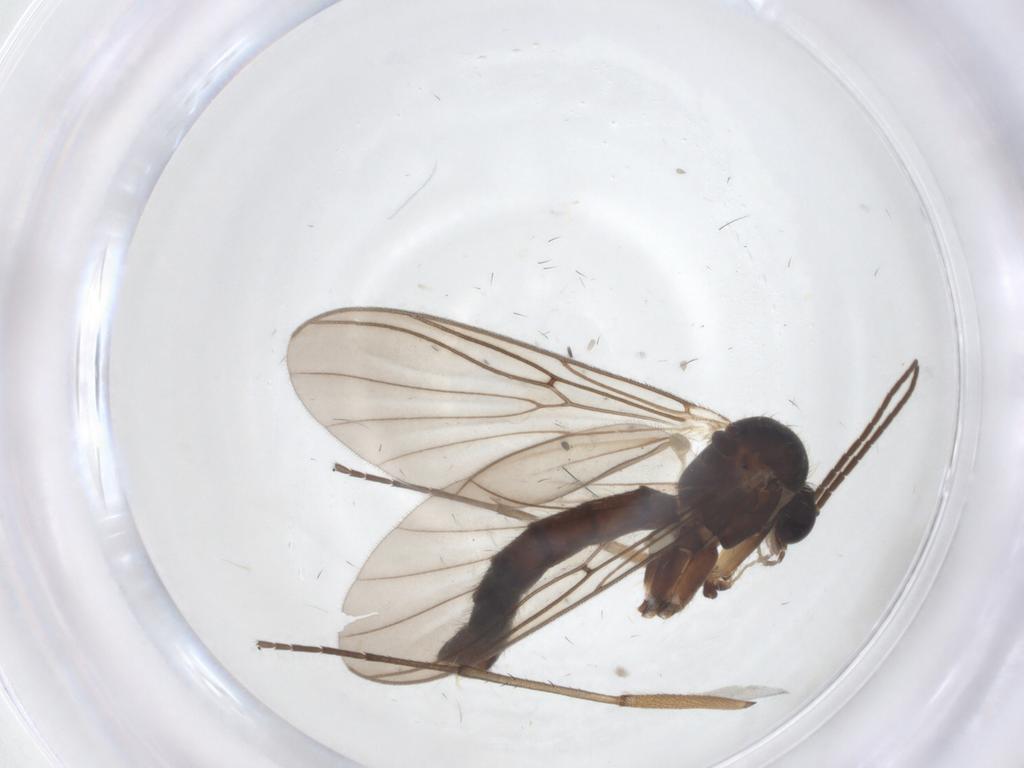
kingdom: Animalia
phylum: Arthropoda
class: Insecta
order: Diptera
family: Mycetophilidae
